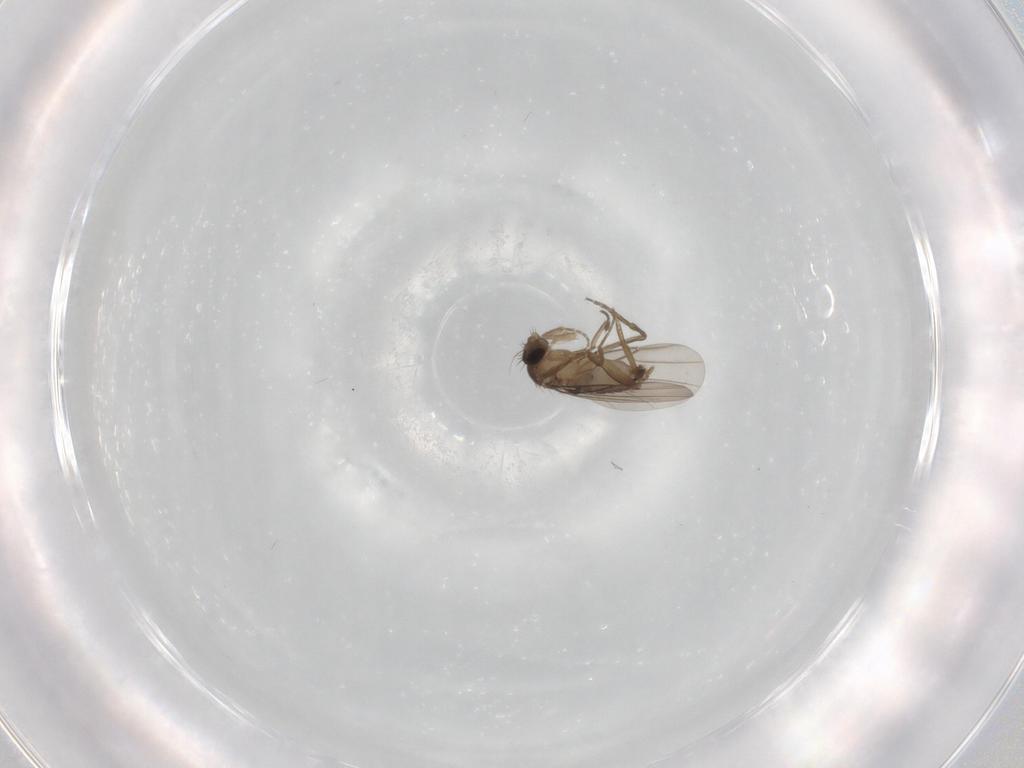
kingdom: Animalia
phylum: Arthropoda
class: Insecta
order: Diptera
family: Phoridae
